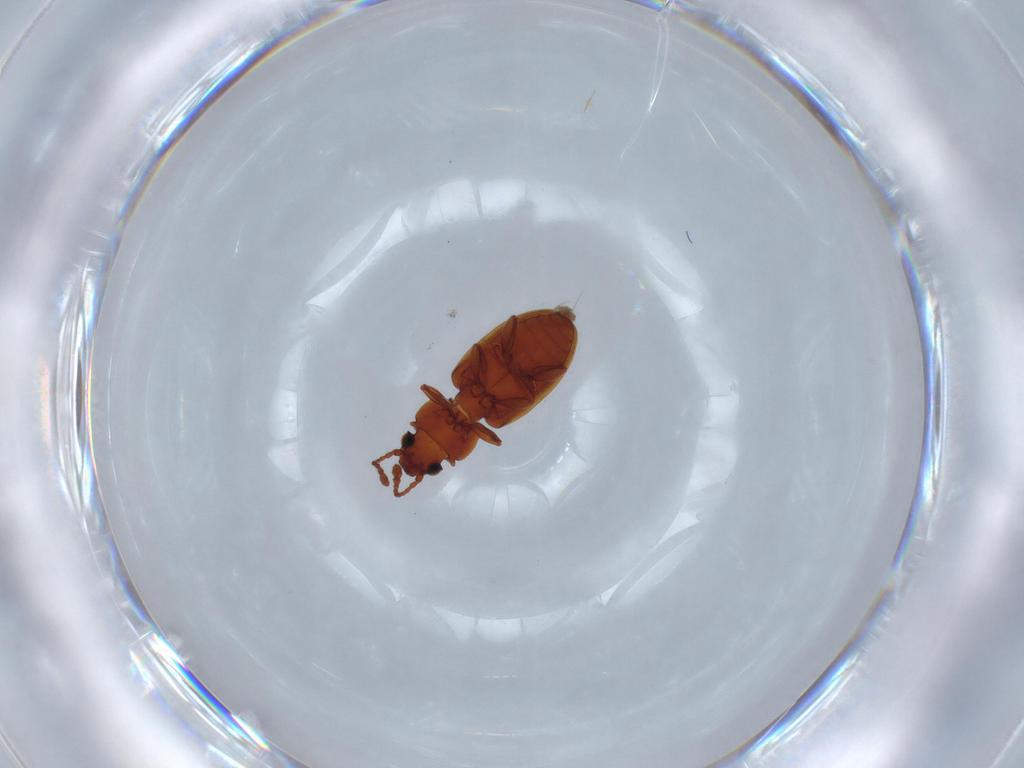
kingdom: Animalia
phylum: Arthropoda
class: Insecta
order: Coleoptera
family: Silvanidae
